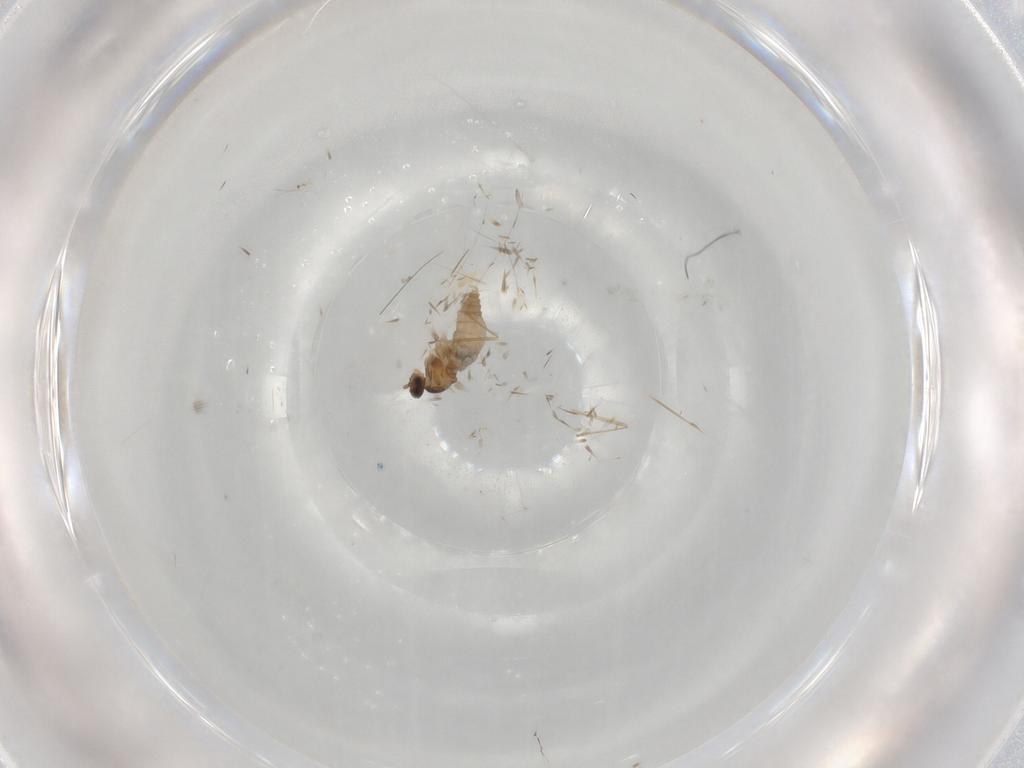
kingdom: Animalia
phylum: Arthropoda
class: Insecta
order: Diptera
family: Cecidomyiidae
